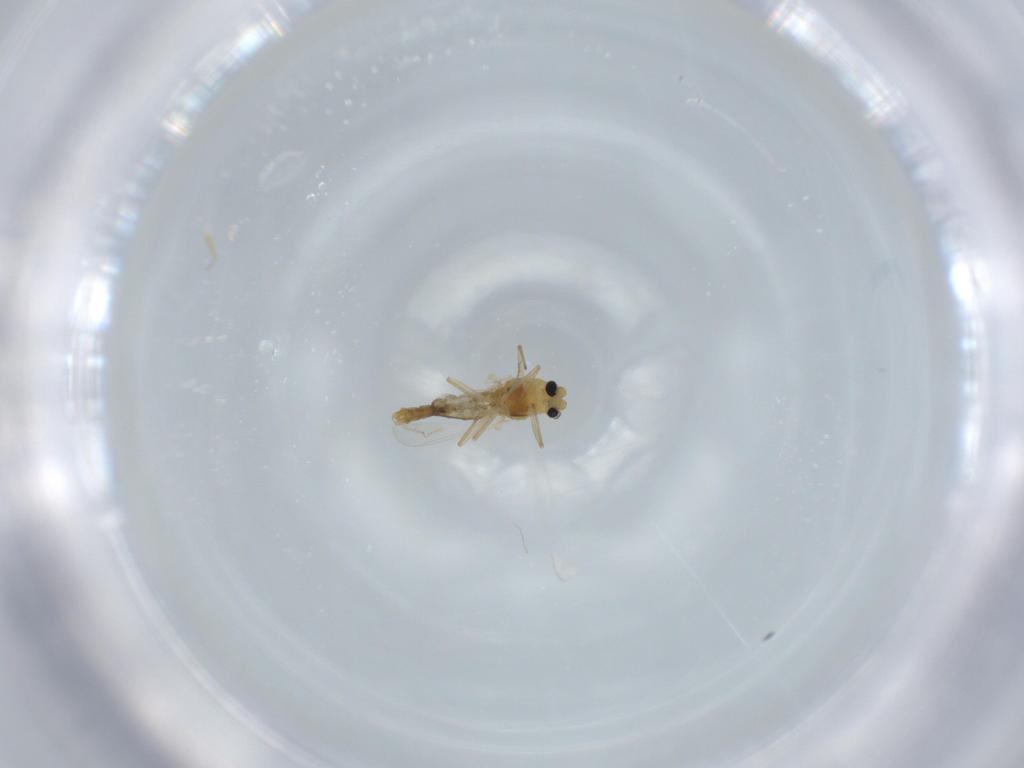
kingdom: Animalia
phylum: Arthropoda
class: Insecta
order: Diptera
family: Chironomidae
